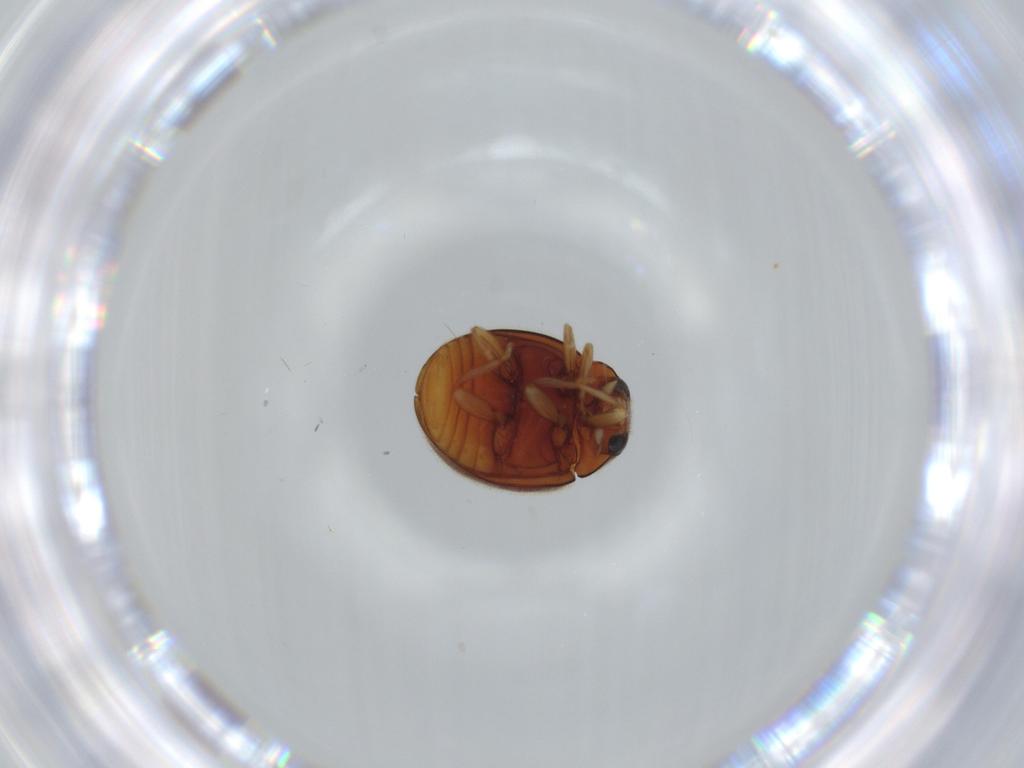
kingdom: Animalia
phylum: Arthropoda
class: Insecta
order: Coleoptera
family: Coccinellidae
